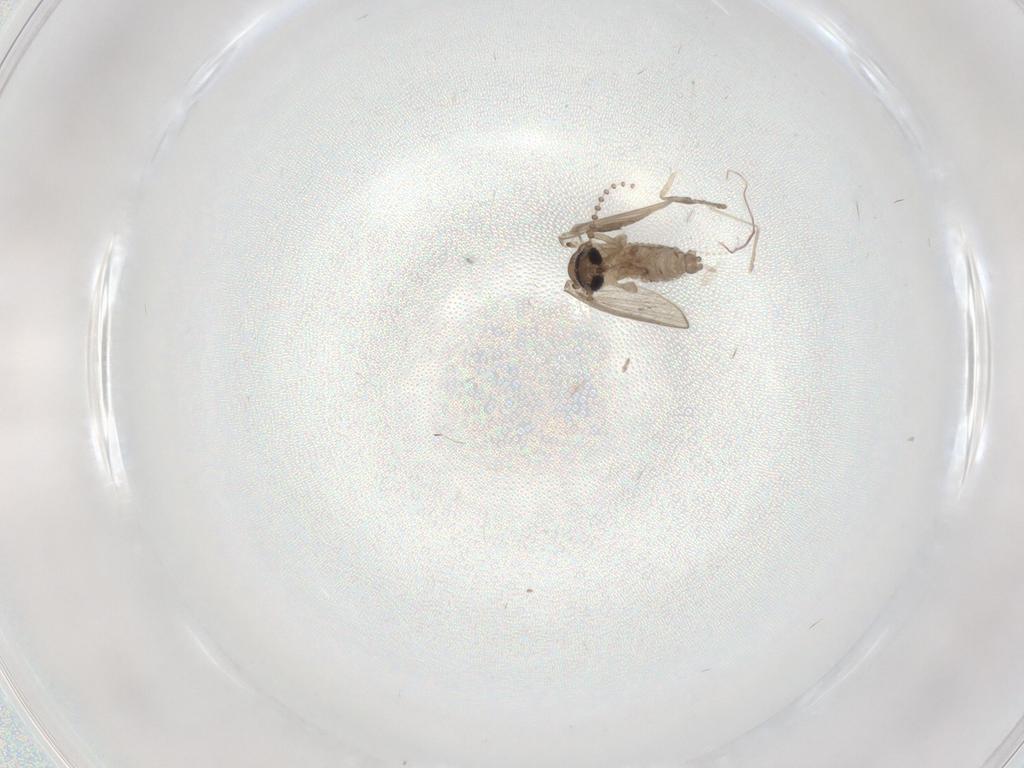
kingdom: Animalia
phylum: Arthropoda
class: Insecta
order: Diptera
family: Psychodidae
